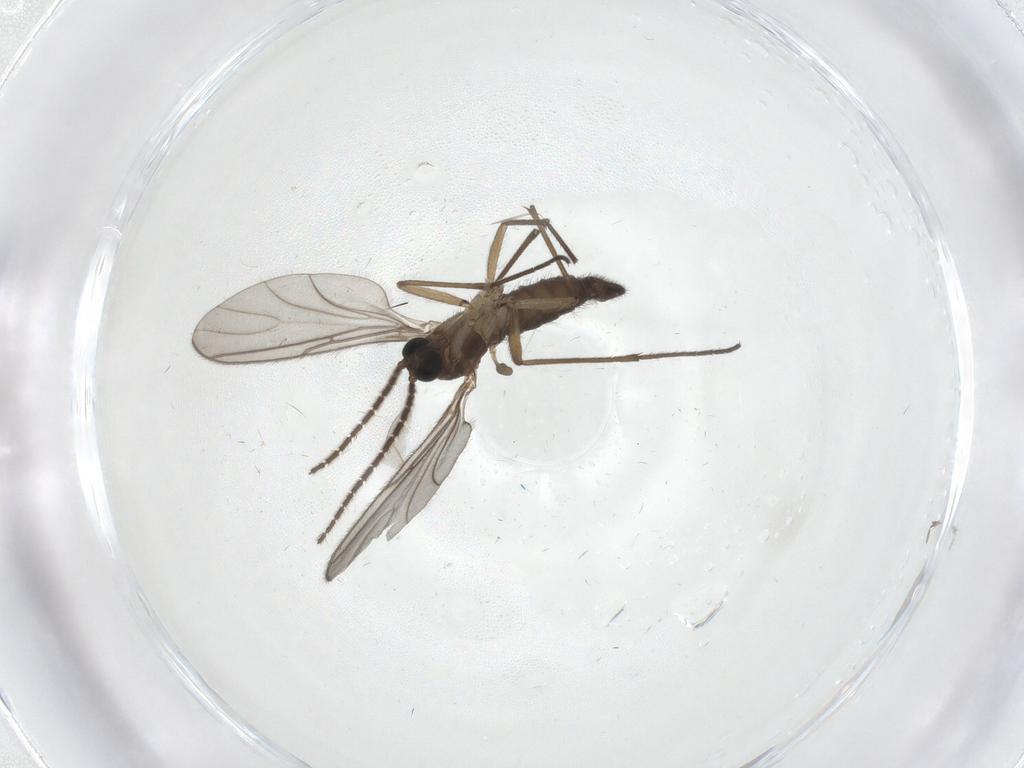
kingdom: Animalia
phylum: Arthropoda
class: Insecta
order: Diptera
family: Sciaridae
